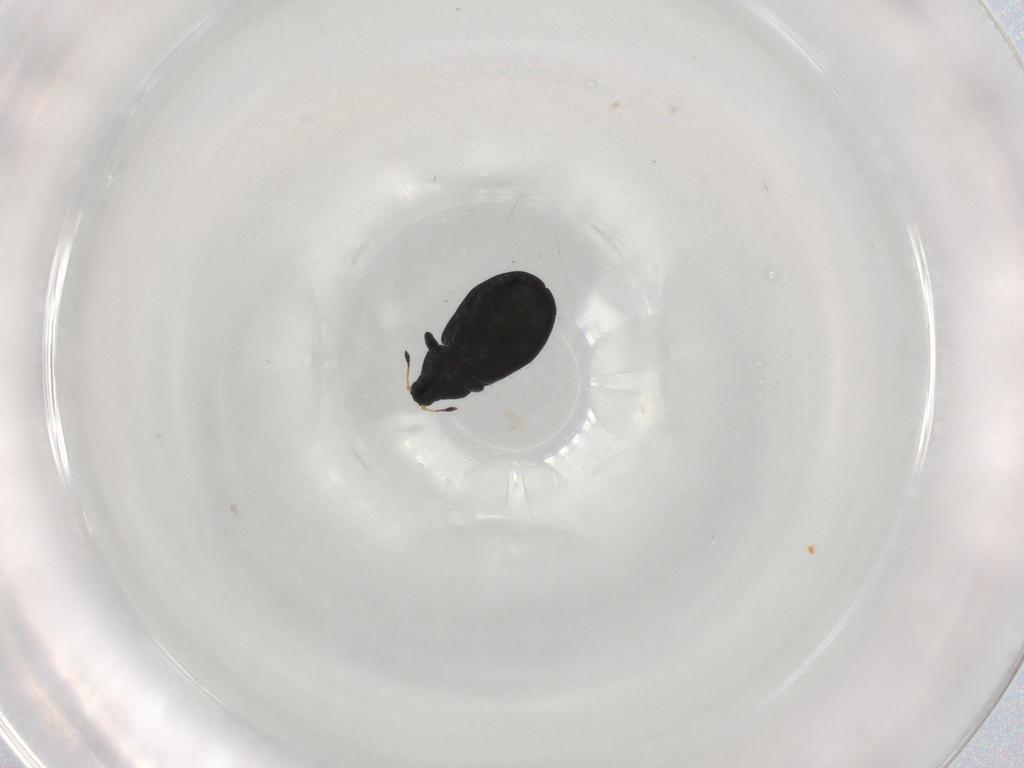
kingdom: Animalia
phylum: Arthropoda
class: Insecta
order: Coleoptera
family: Curculionidae
